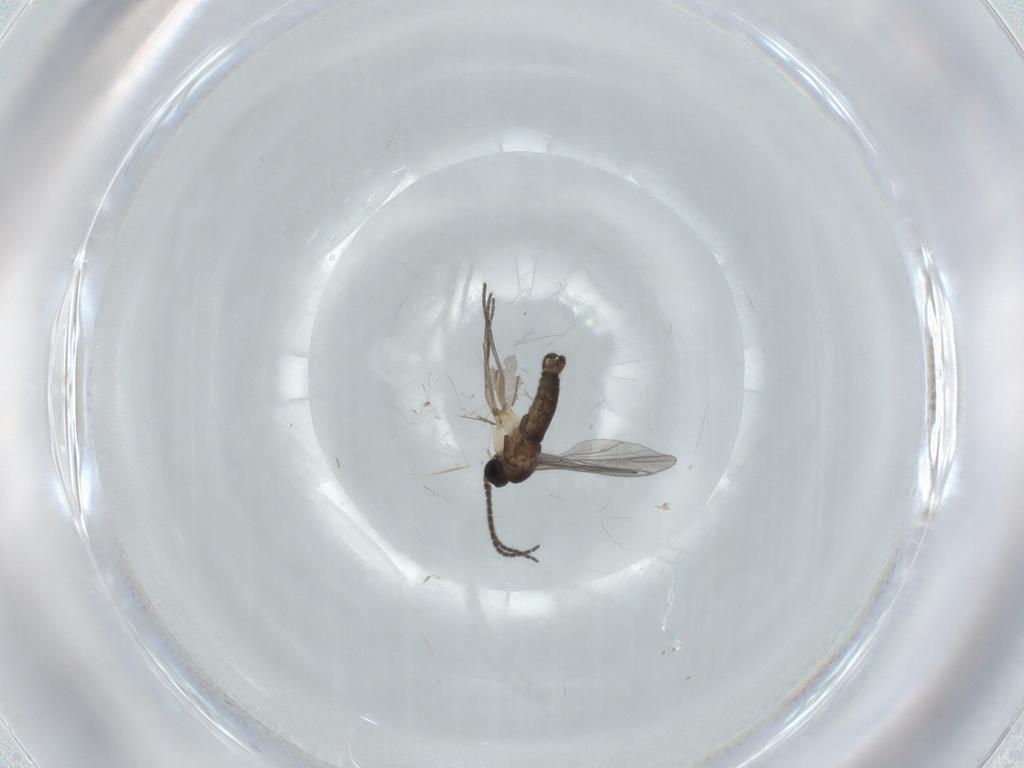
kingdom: Animalia
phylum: Arthropoda
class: Insecta
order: Diptera
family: Sciaridae
